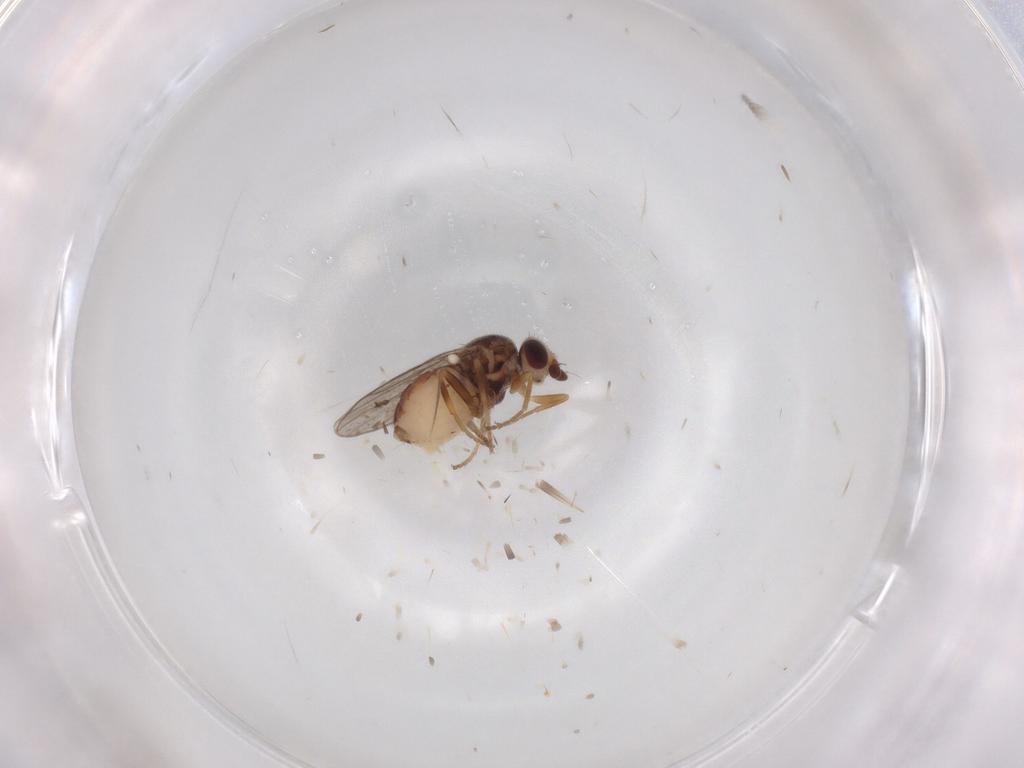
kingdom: Animalia
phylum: Arthropoda
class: Insecta
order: Diptera
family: Chloropidae
